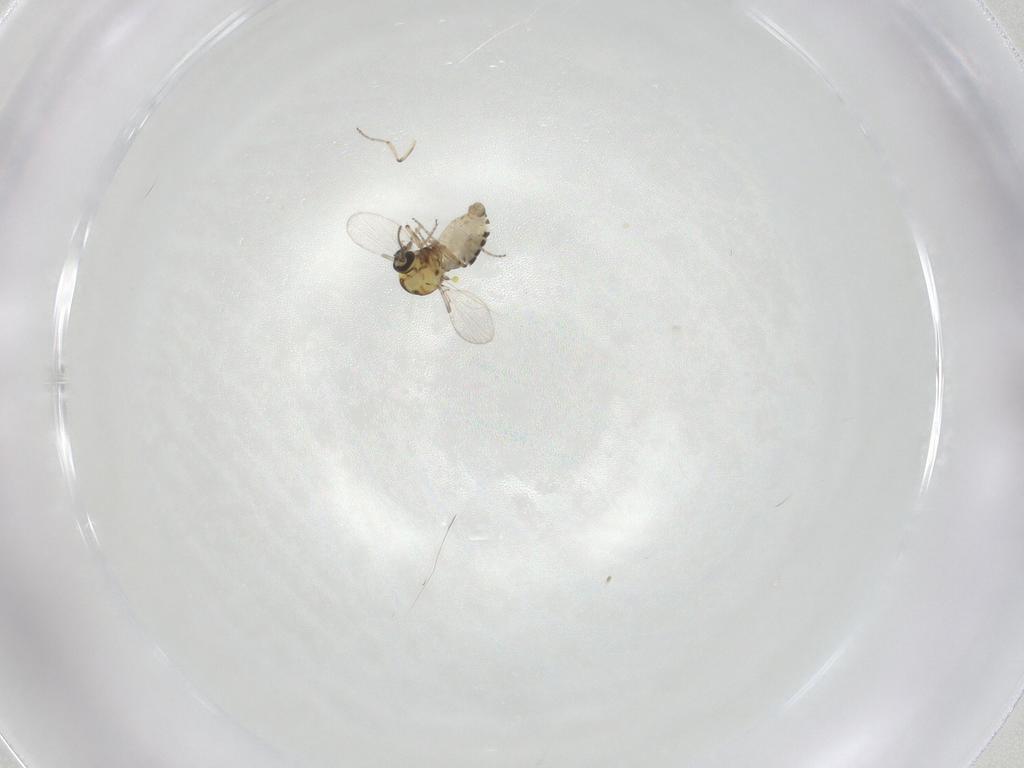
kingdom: Animalia
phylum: Arthropoda
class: Insecta
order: Diptera
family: Ceratopogonidae
